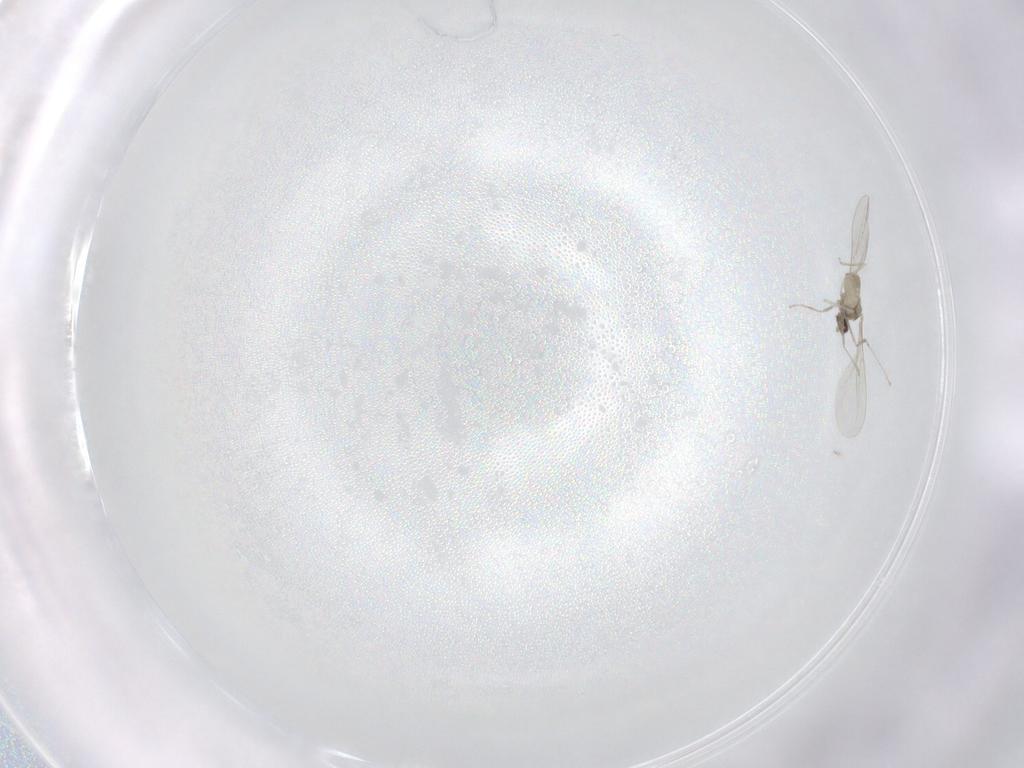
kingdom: Animalia
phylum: Arthropoda
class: Insecta
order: Diptera
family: Cecidomyiidae
